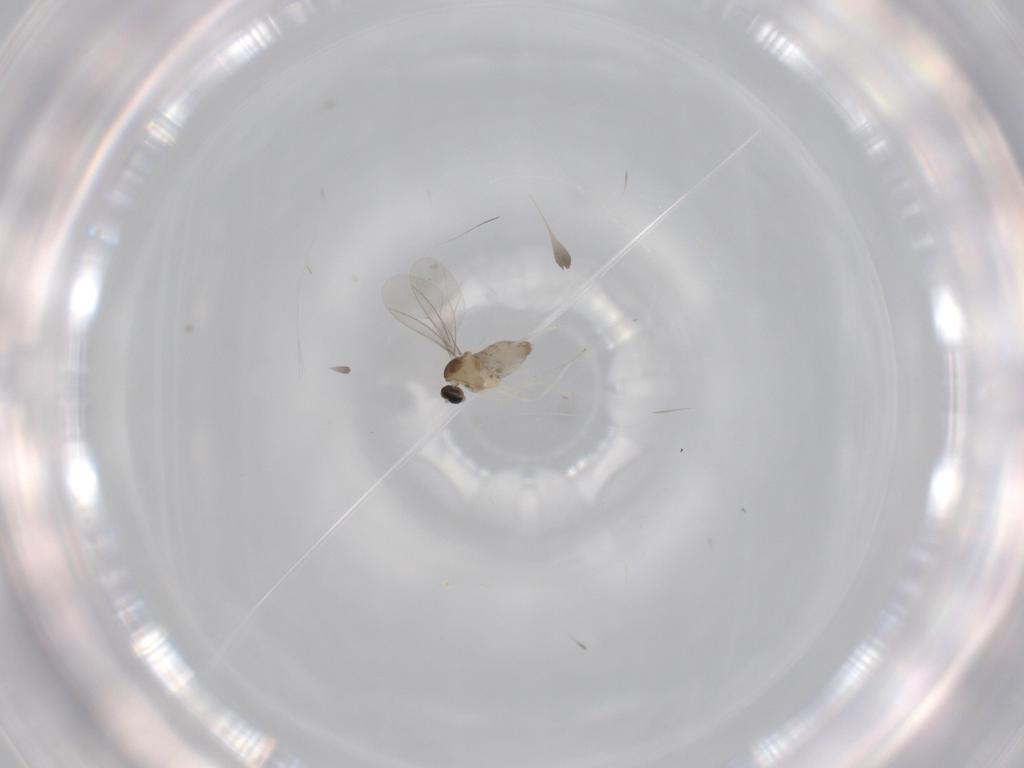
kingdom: Animalia
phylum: Arthropoda
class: Insecta
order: Diptera
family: Cecidomyiidae
